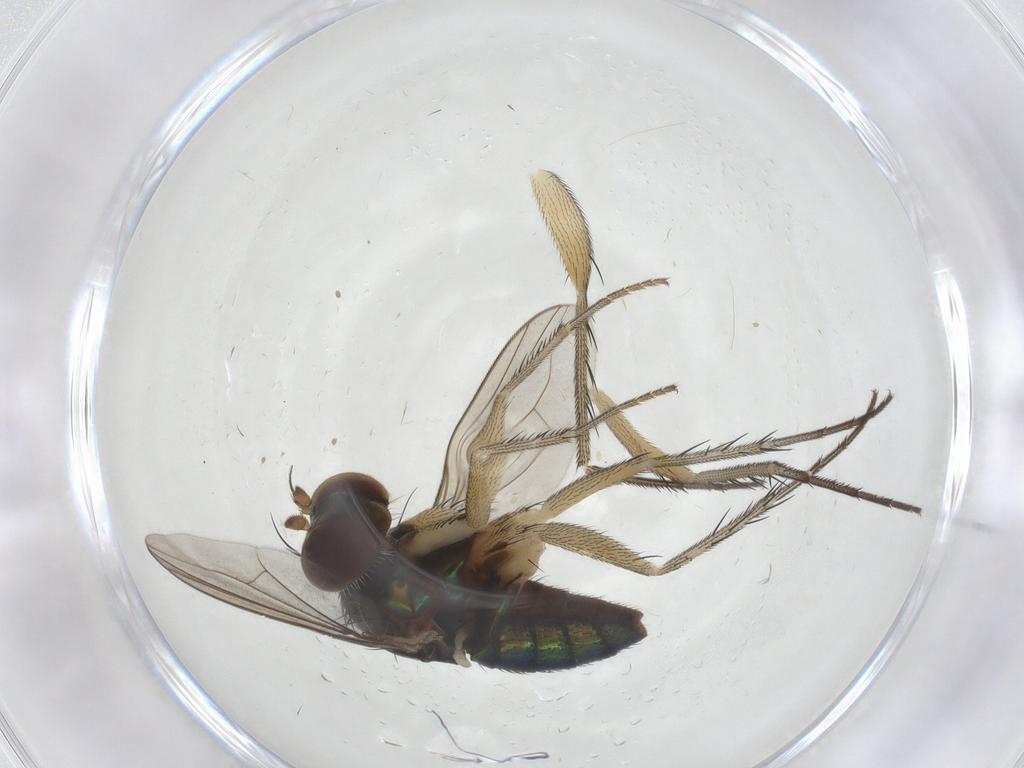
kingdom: Animalia
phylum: Arthropoda
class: Insecta
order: Diptera
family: Dolichopodidae
